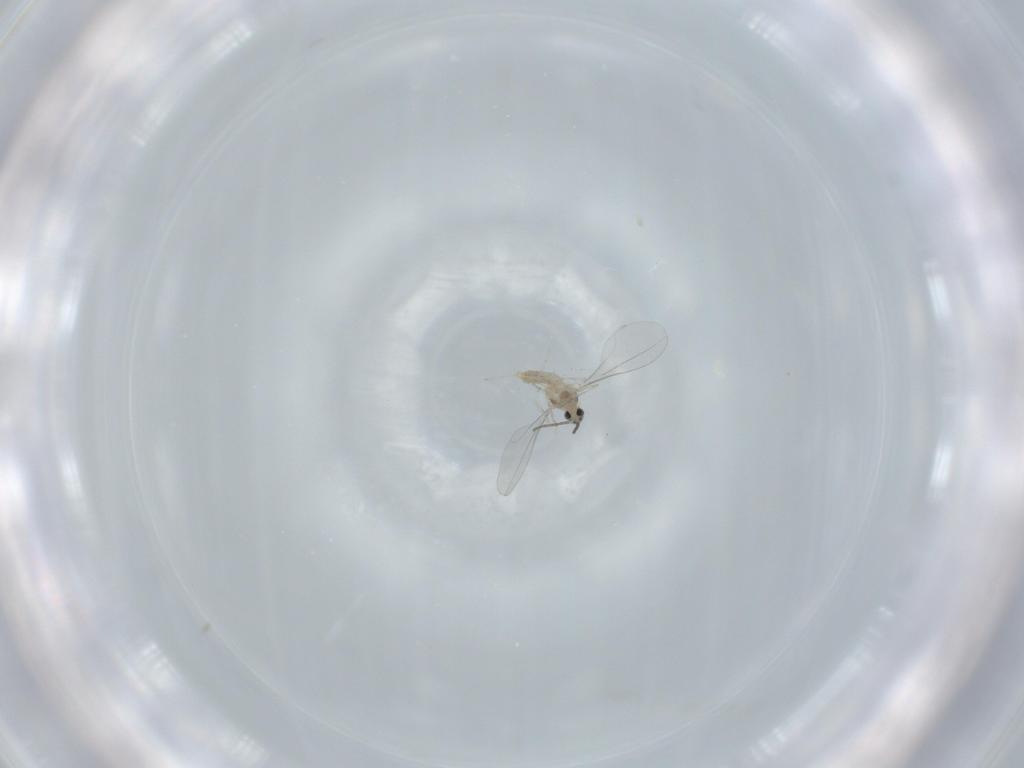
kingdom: Animalia
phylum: Arthropoda
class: Insecta
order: Diptera
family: Cecidomyiidae
